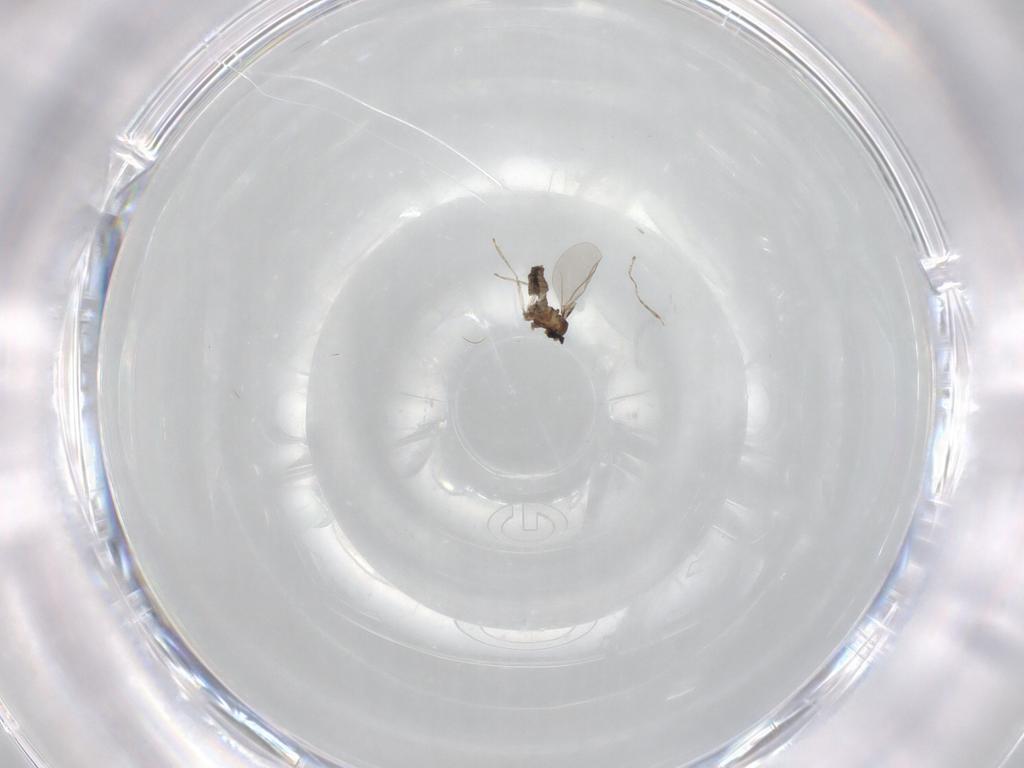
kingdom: Animalia
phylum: Arthropoda
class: Insecta
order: Diptera
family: Cecidomyiidae
